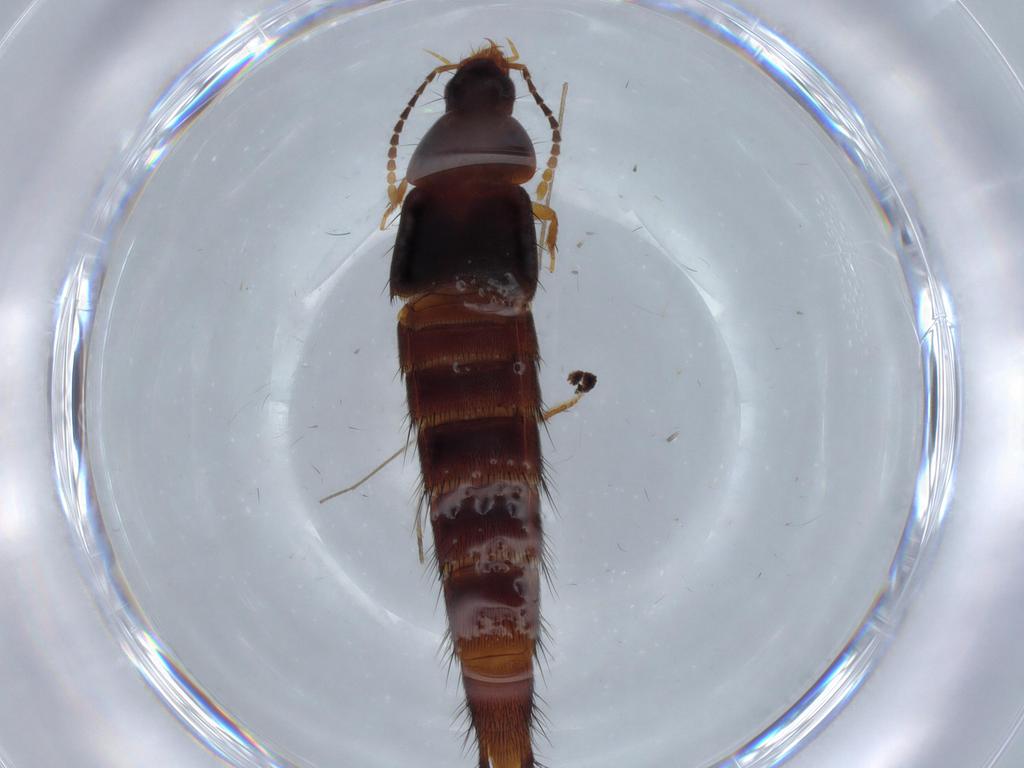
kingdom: Animalia
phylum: Arthropoda
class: Insecta
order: Coleoptera
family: Staphylinidae
